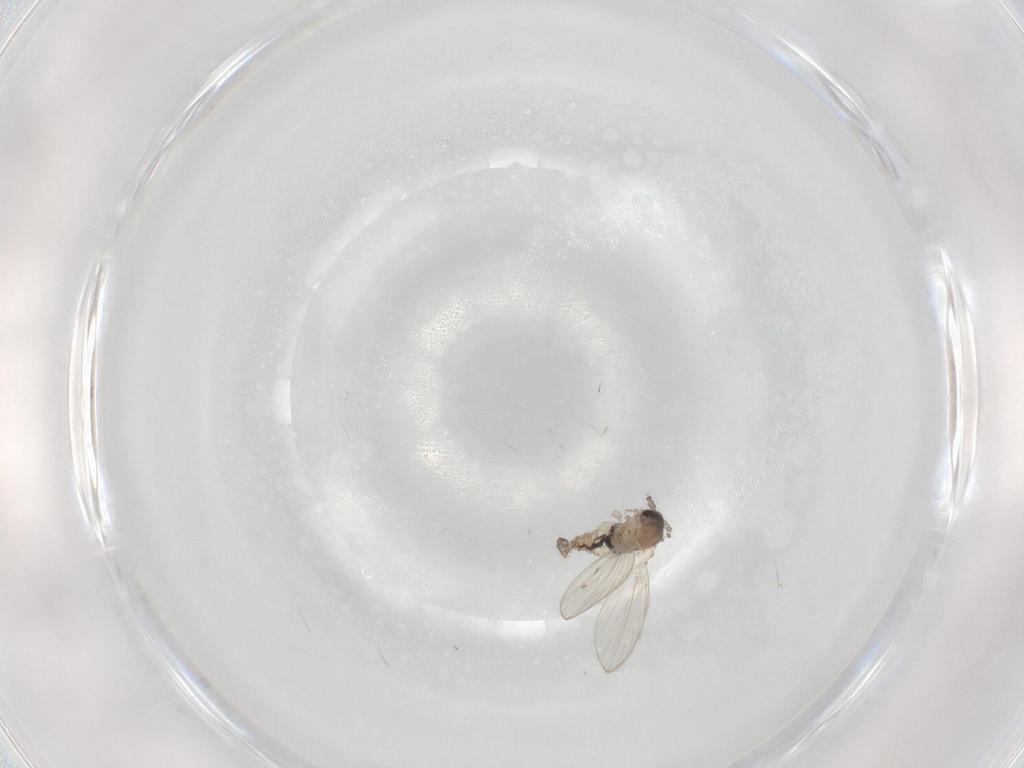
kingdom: Animalia
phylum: Arthropoda
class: Insecta
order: Diptera
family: Psychodidae
